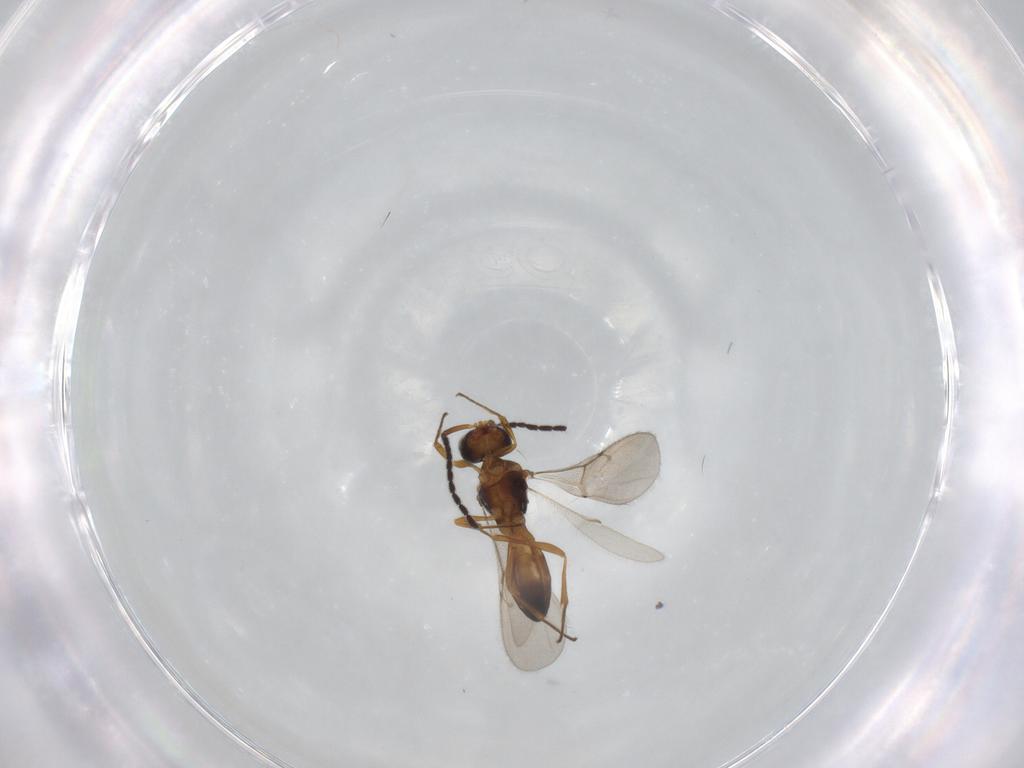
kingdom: Animalia
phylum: Arthropoda
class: Insecta
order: Hymenoptera
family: Scelionidae
